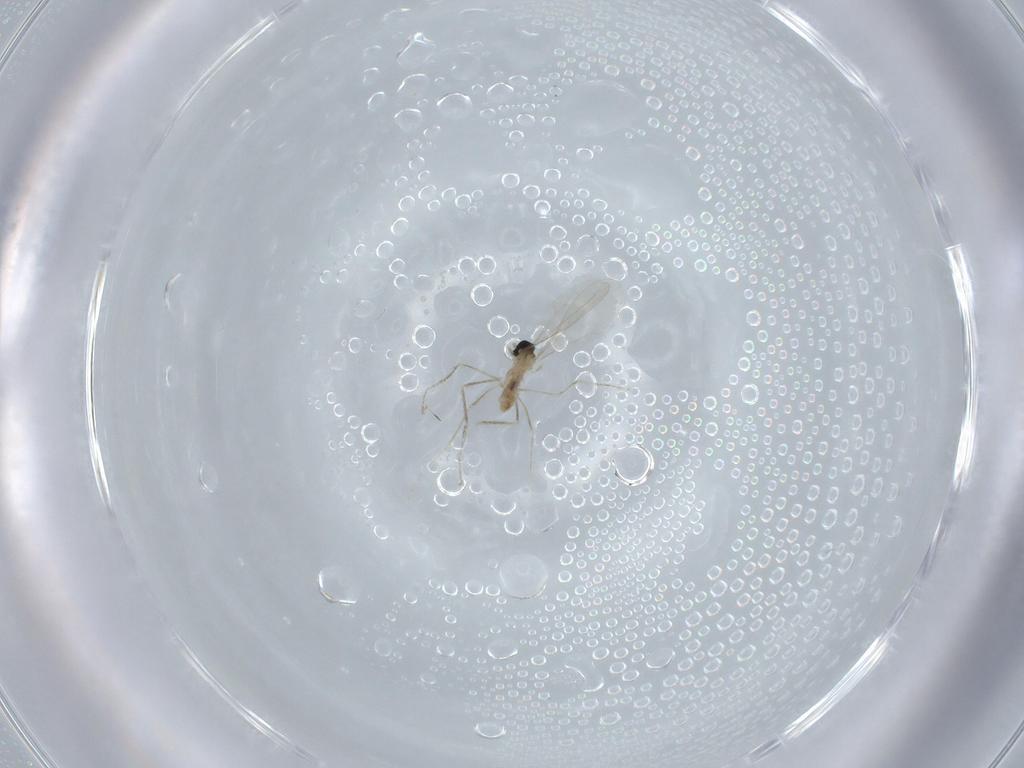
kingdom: Animalia
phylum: Arthropoda
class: Insecta
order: Diptera
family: Cecidomyiidae
